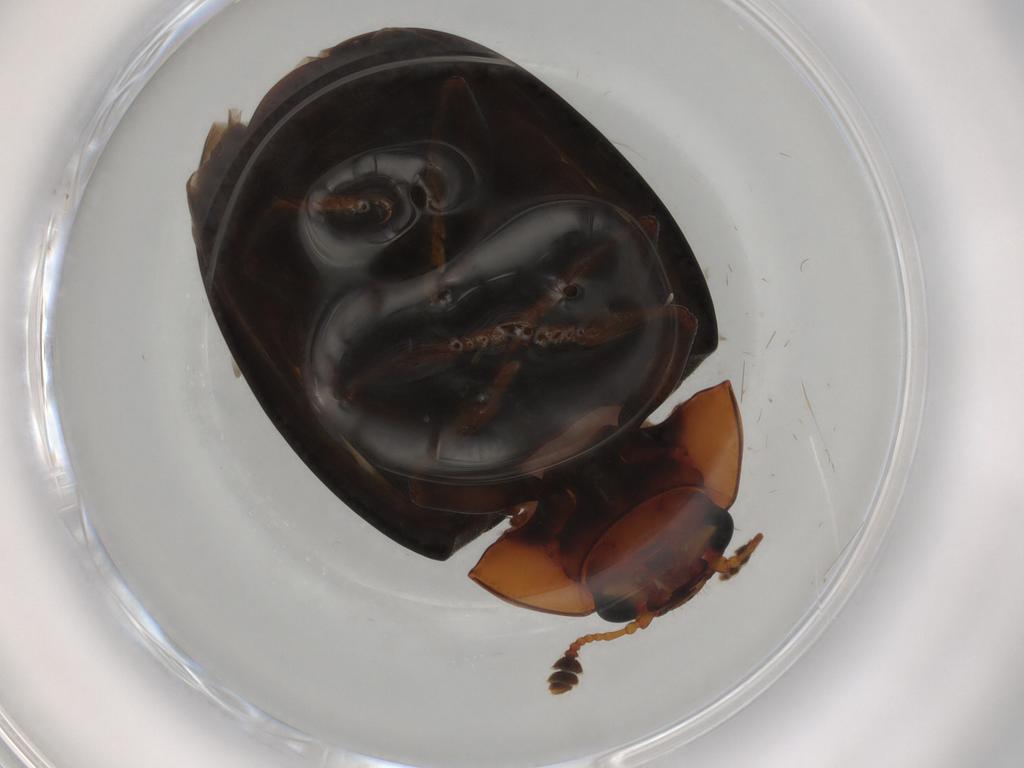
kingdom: Animalia
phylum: Arthropoda
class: Insecta
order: Coleoptera
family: Erotylidae
